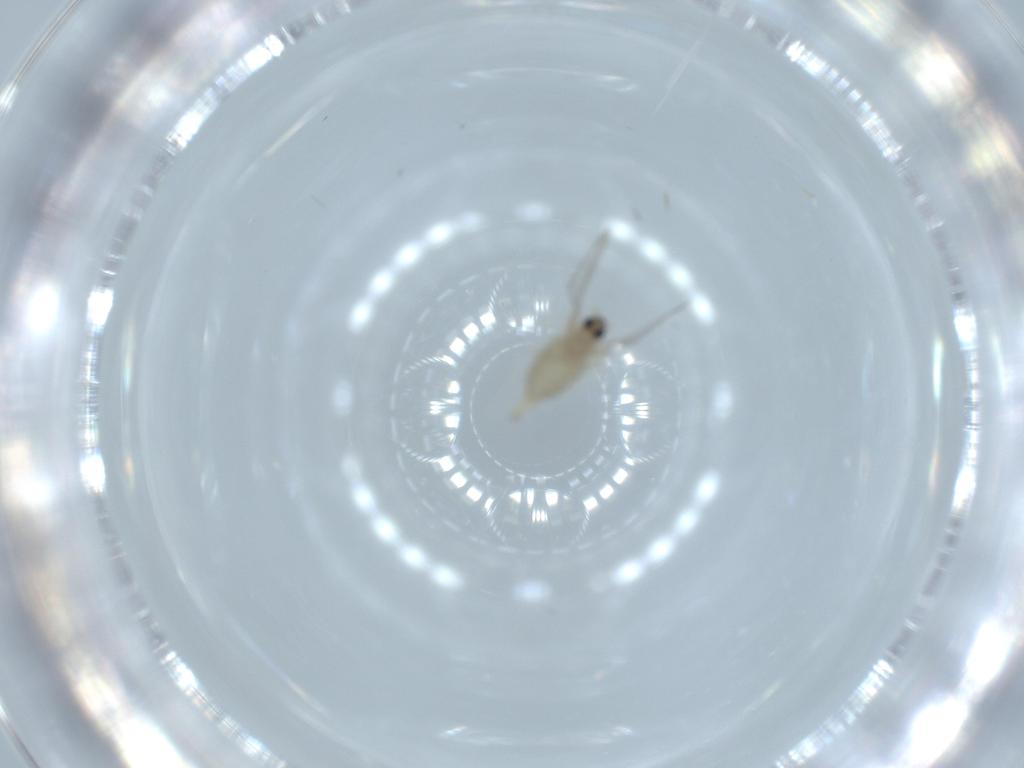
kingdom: Animalia
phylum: Arthropoda
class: Insecta
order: Diptera
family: Cecidomyiidae
